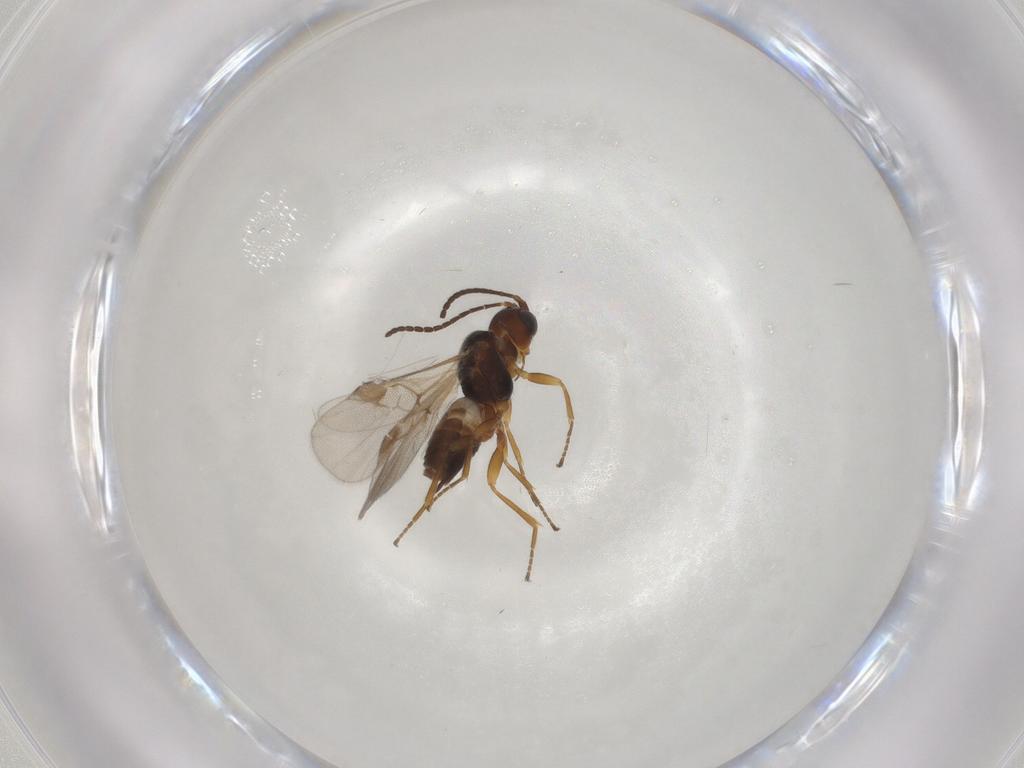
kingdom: Animalia
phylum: Arthropoda
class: Insecta
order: Hymenoptera
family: Braconidae
